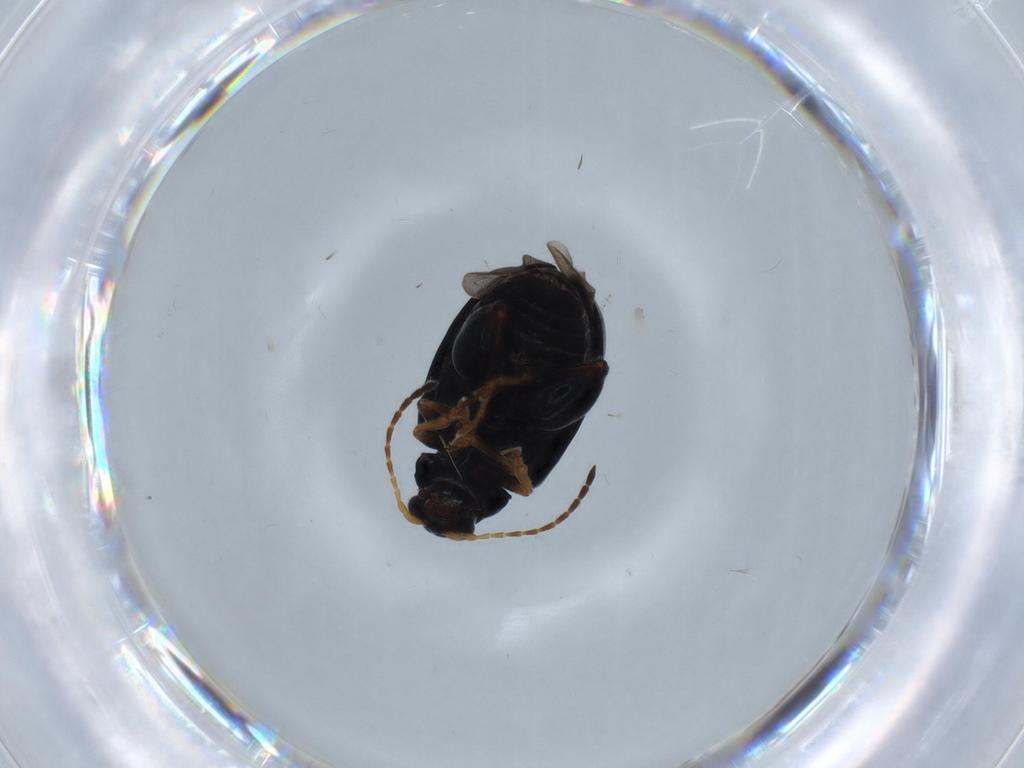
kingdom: Animalia
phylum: Arthropoda
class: Insecta
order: Coleoptera
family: Chrysomelidae
